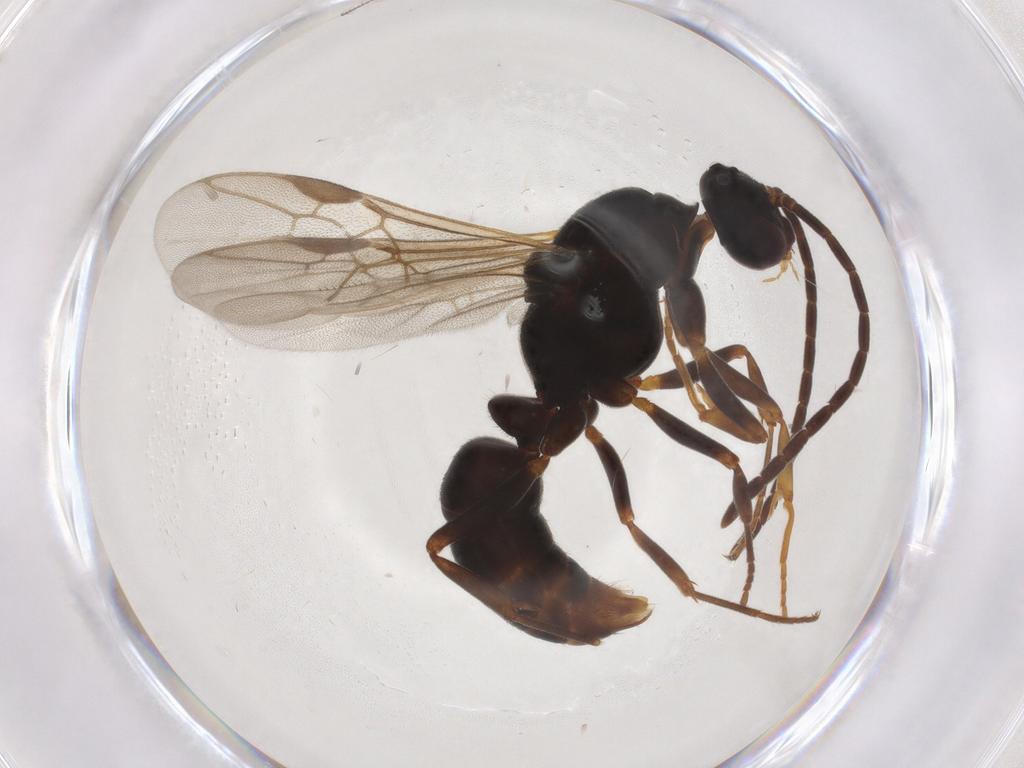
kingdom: Animalia
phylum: Arthropoda
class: Insecta
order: Hymenoptera
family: Formicidae
